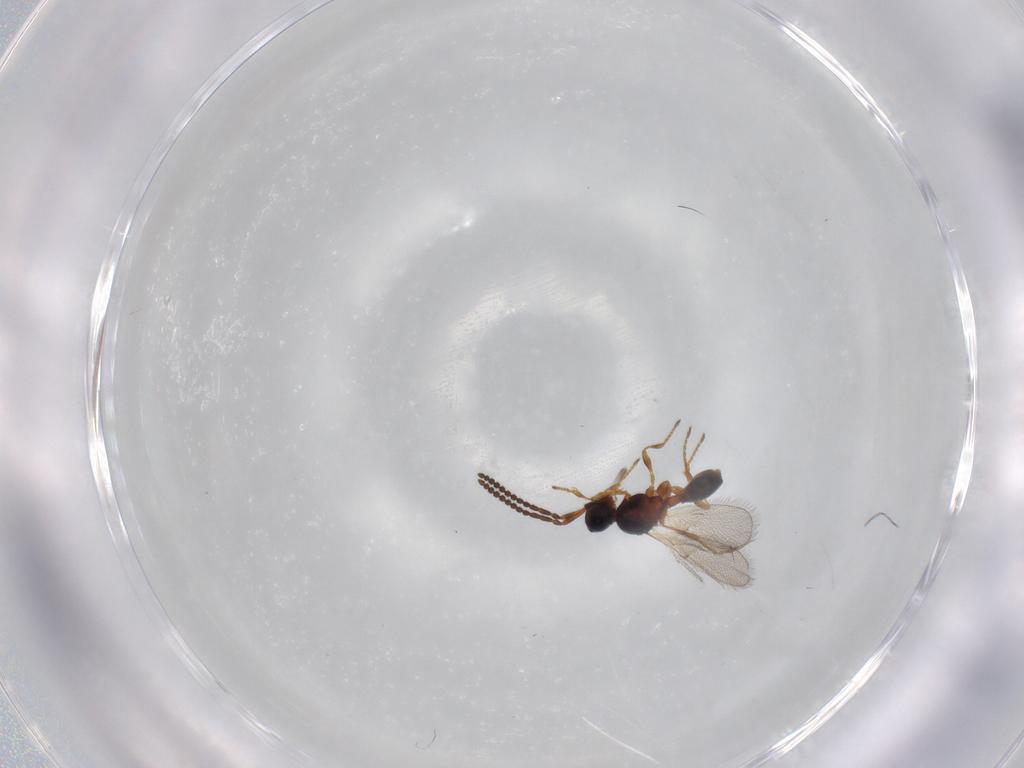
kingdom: Animalia
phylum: Arthropoda
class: Insecta
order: Hymenoptera
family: Diapriidae
